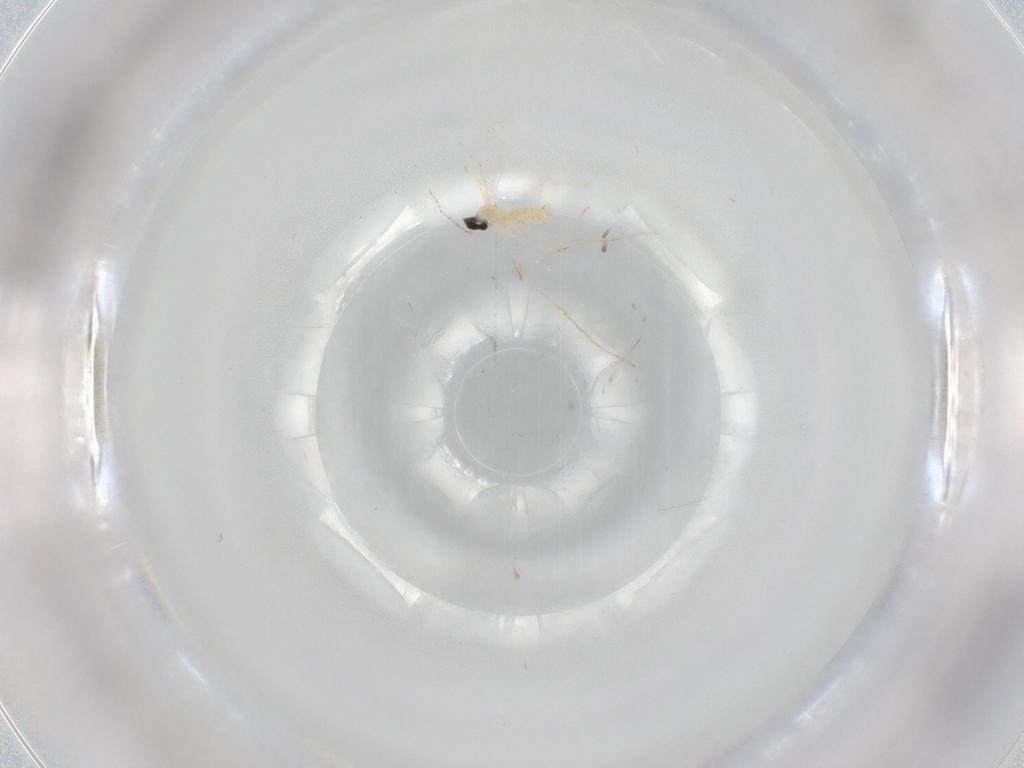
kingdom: Animalia
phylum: Arthropoda
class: Insecta
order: Diptera
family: Cecidomyiidae
